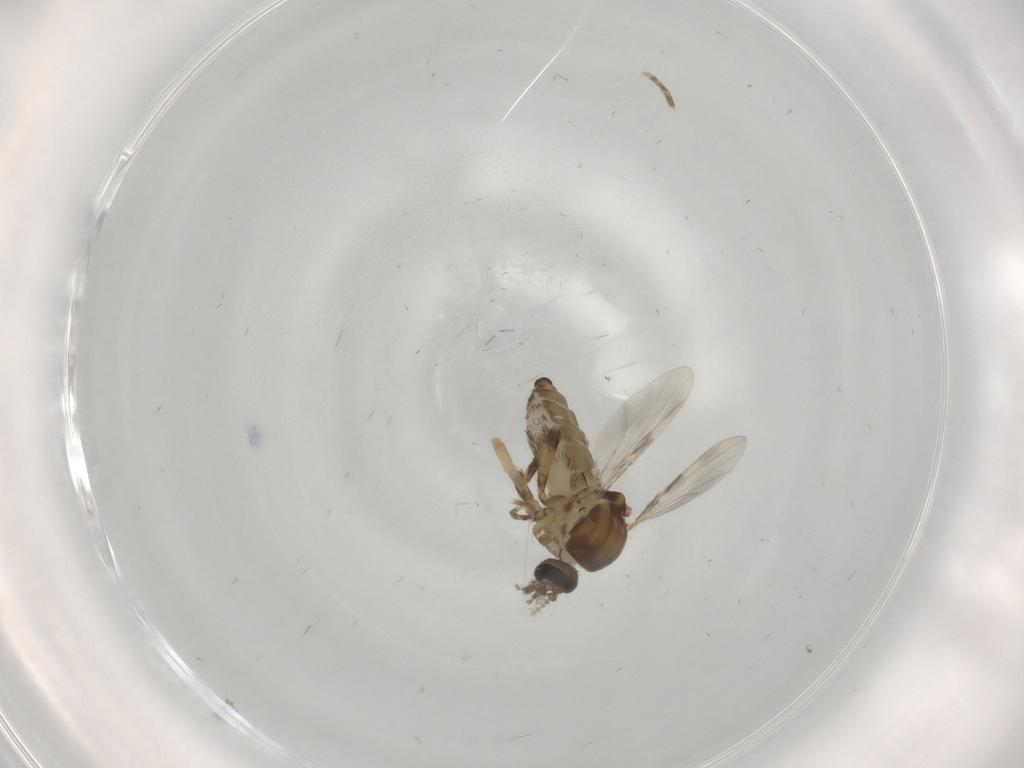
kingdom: Animalia
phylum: Arthropoda
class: Insecta
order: Diptera
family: Ceratopogonidae
